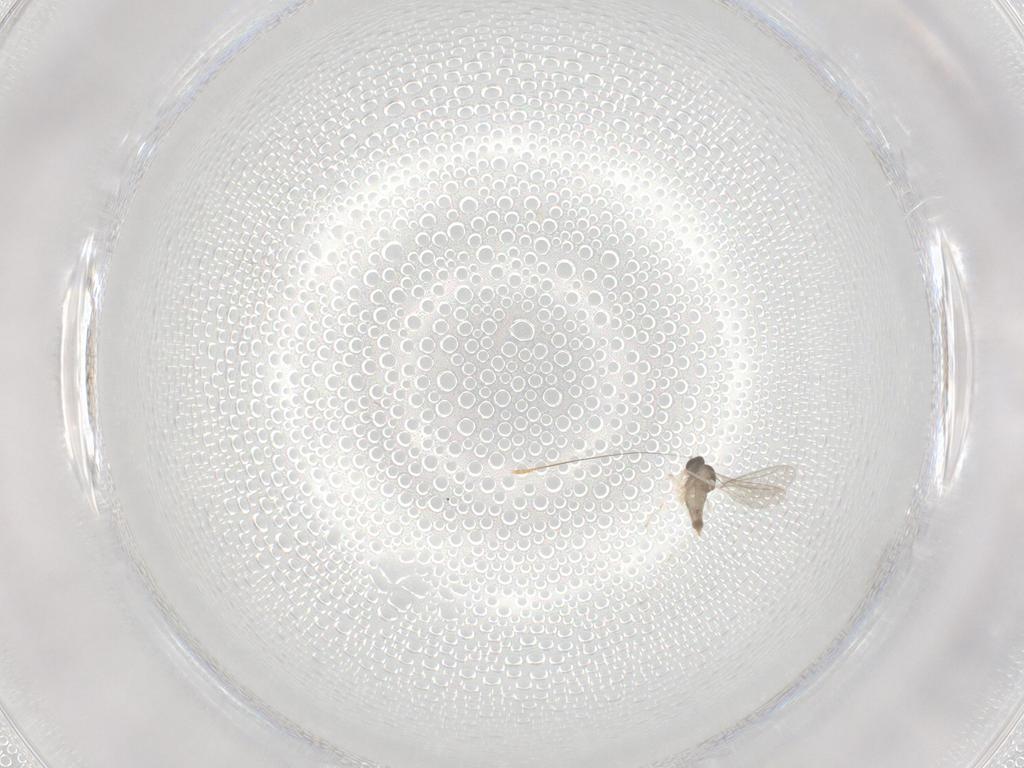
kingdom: Animalia
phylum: Arthropoda
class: Insecta
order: Diptera
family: Cecidomyiidae
